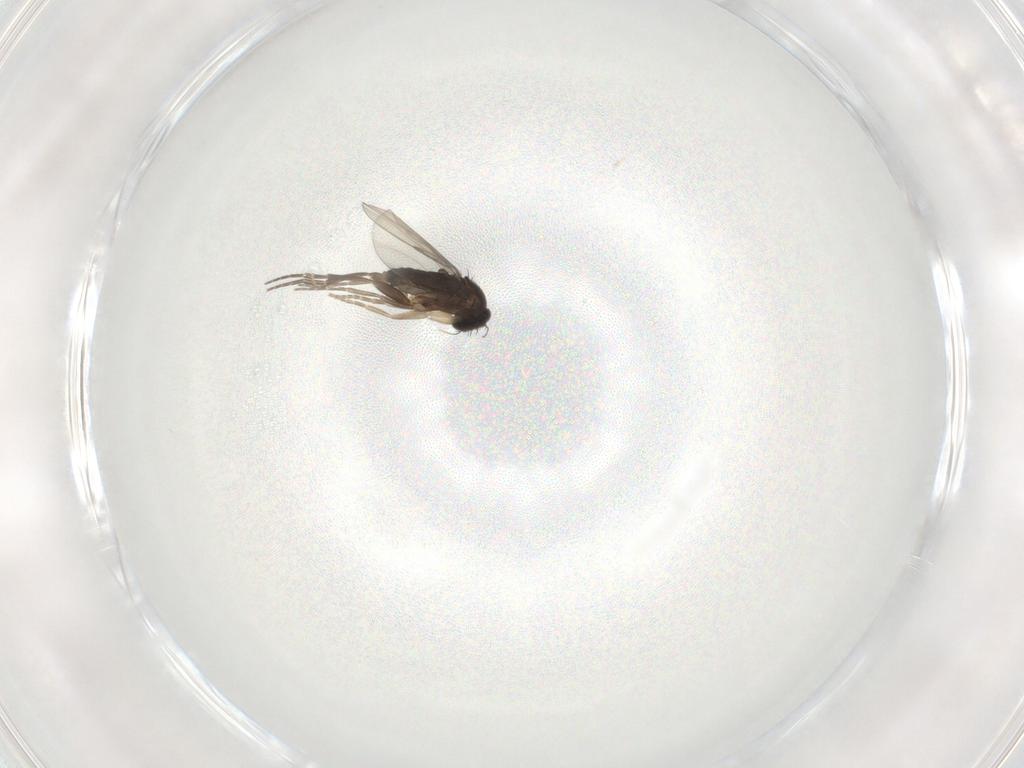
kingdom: Animalia
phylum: Arthropoda
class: Insecta
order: Diptera
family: Phoridae
